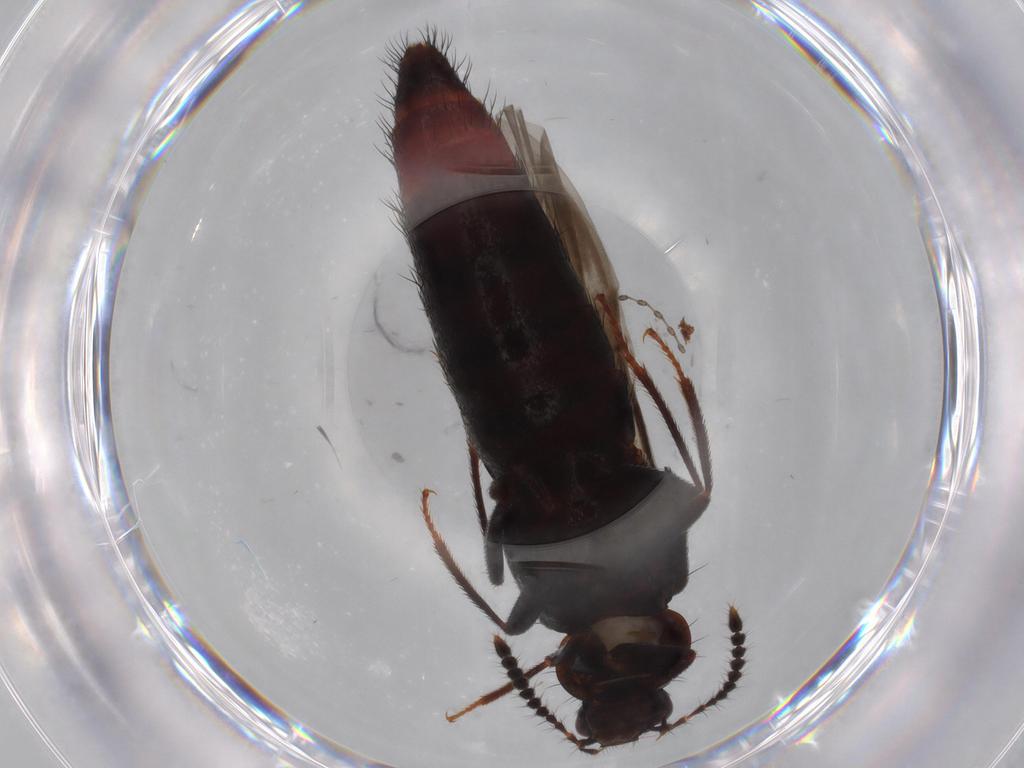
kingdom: Animalia
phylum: Arthropoda
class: Insecta
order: Coleoptera
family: Staphylinidae
